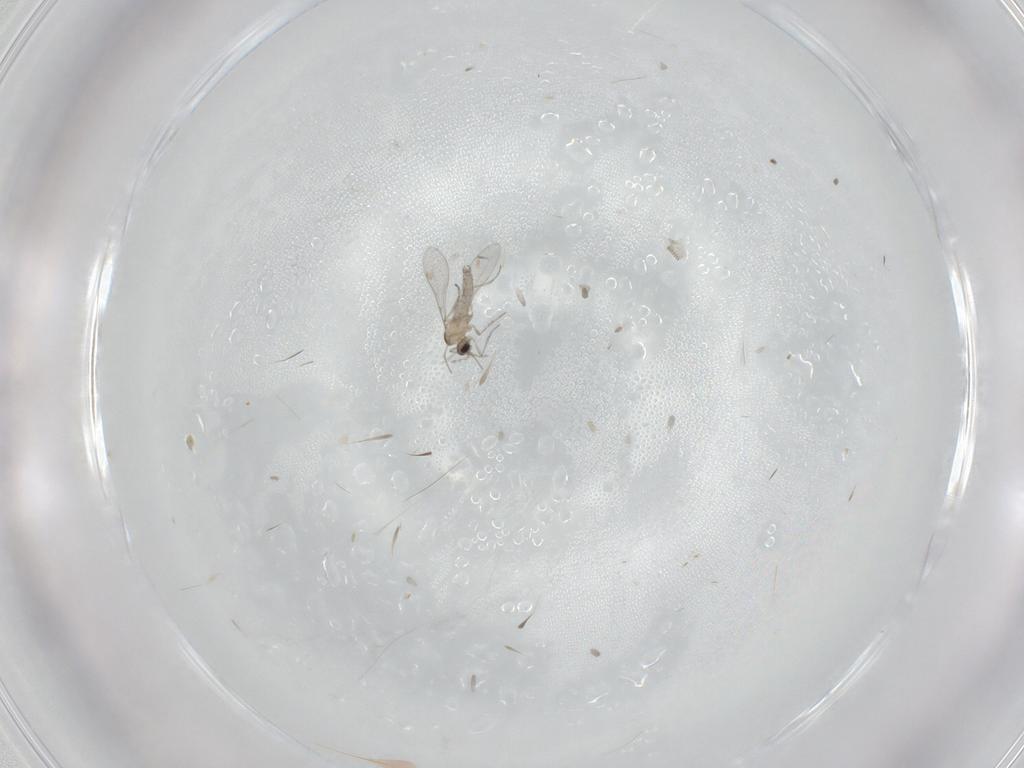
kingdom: Animalia
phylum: Arthropoda
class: Insecta
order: Diptera
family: Cecidomyiidae
